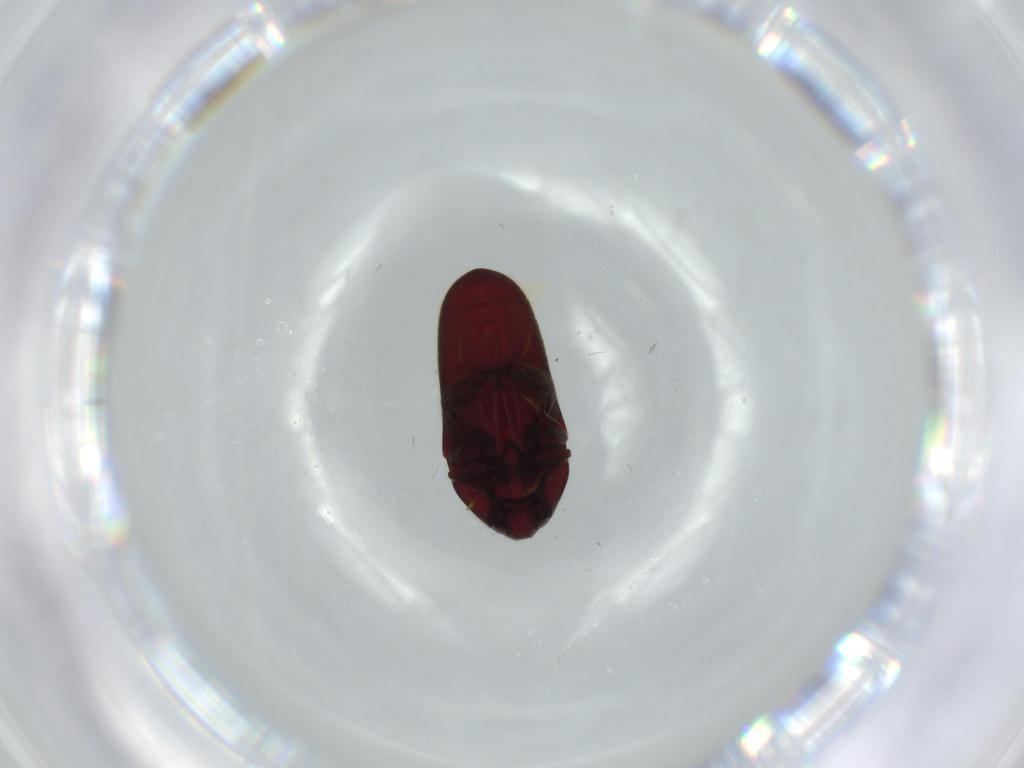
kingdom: Animalia
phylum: Arthropoda
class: Insecta
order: Coleoptera
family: Throscidae
